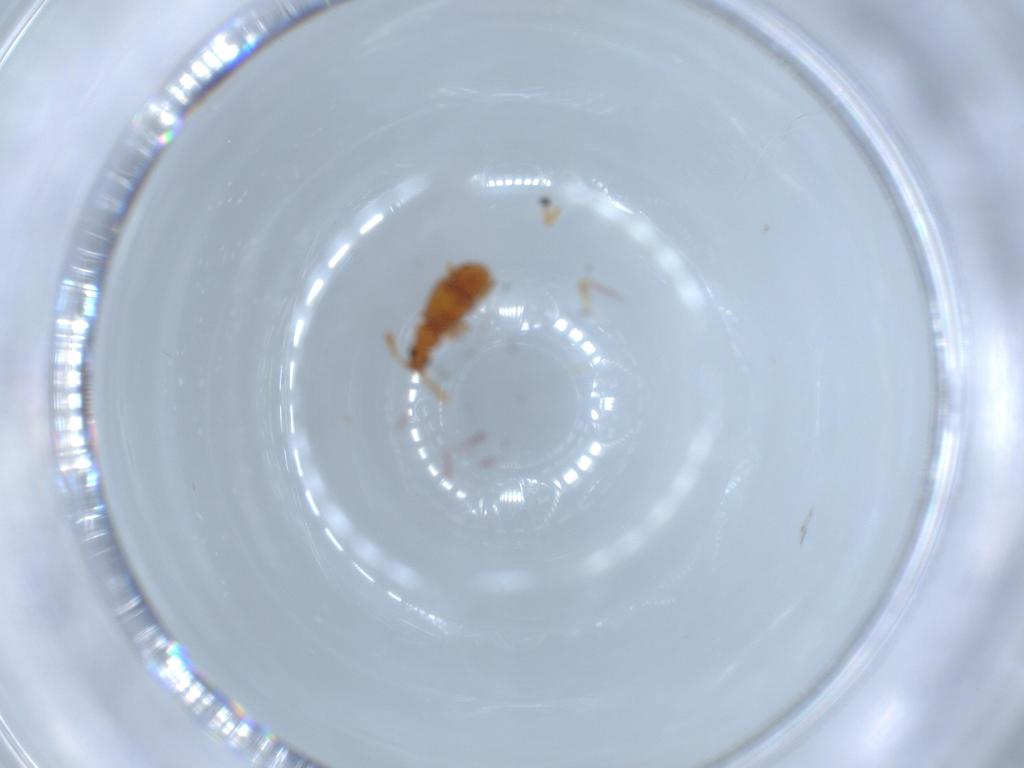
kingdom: Animalia
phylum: Arthropoda
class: Insecta
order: Coleoptera
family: Staphylinidae
